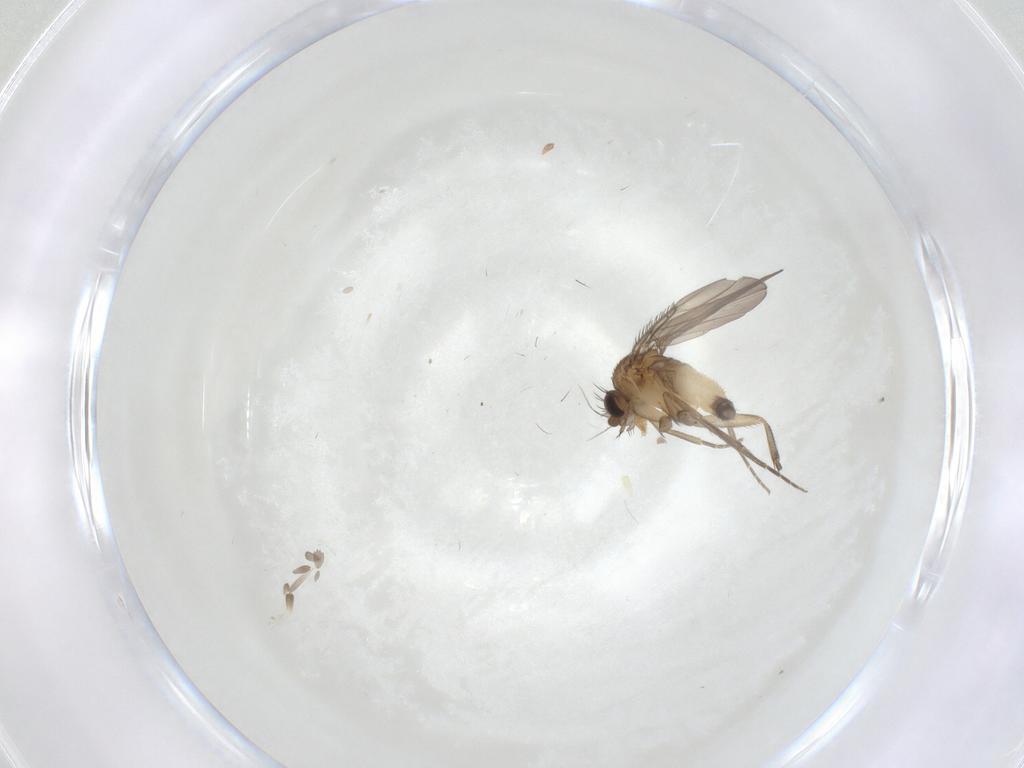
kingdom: Animalia
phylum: Arthropoda
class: Insecta
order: Diptera
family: Phoridae
